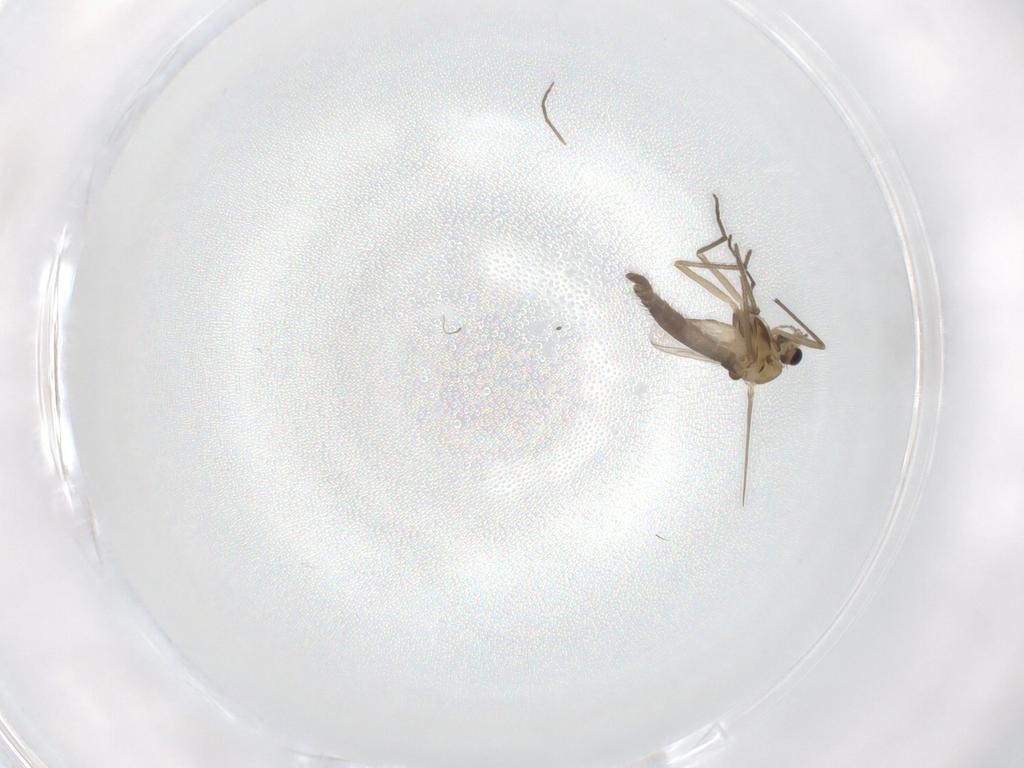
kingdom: Animalia
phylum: Arthropoda
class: Insecta
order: Diptera
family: Chironomidae
